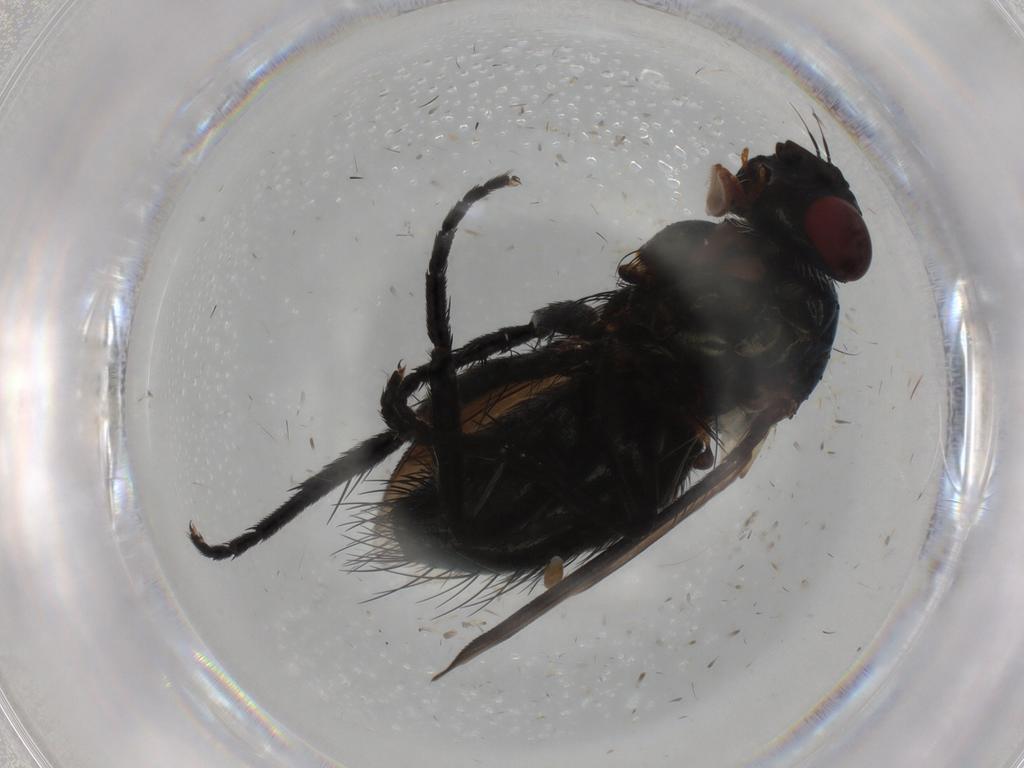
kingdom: Animalia
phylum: Arthropoda
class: Insecta
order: Diptera
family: Tachinidae
